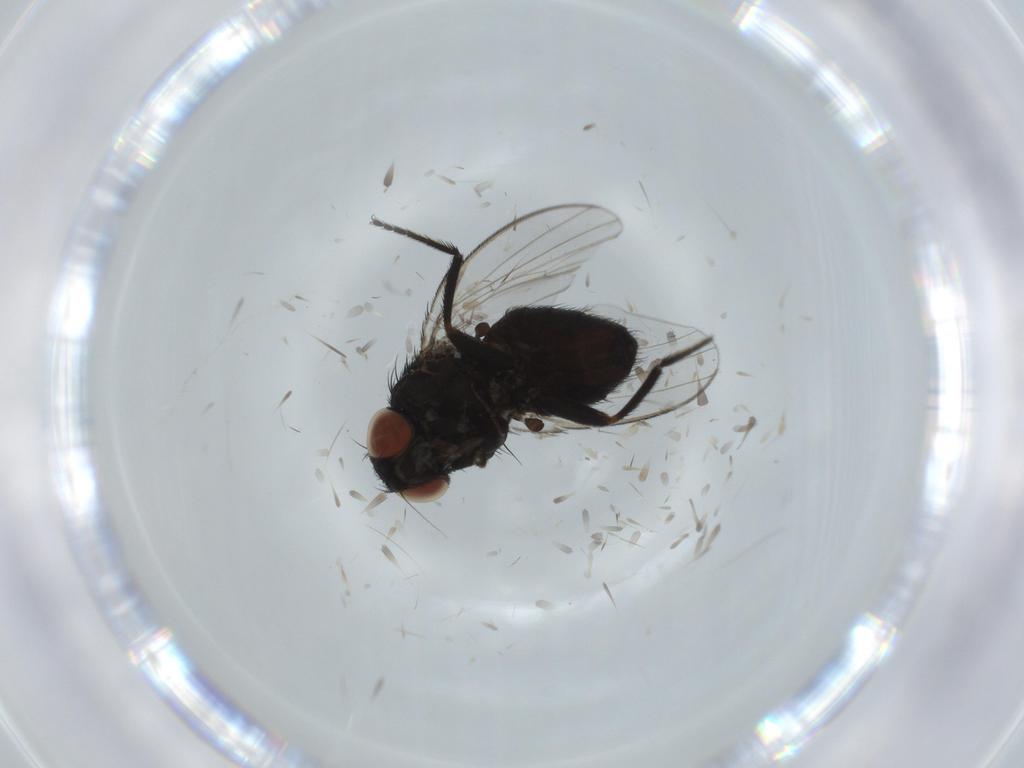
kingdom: Animalia
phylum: Arthropoda
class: Insecta
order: Diptera
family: Milichiidae
